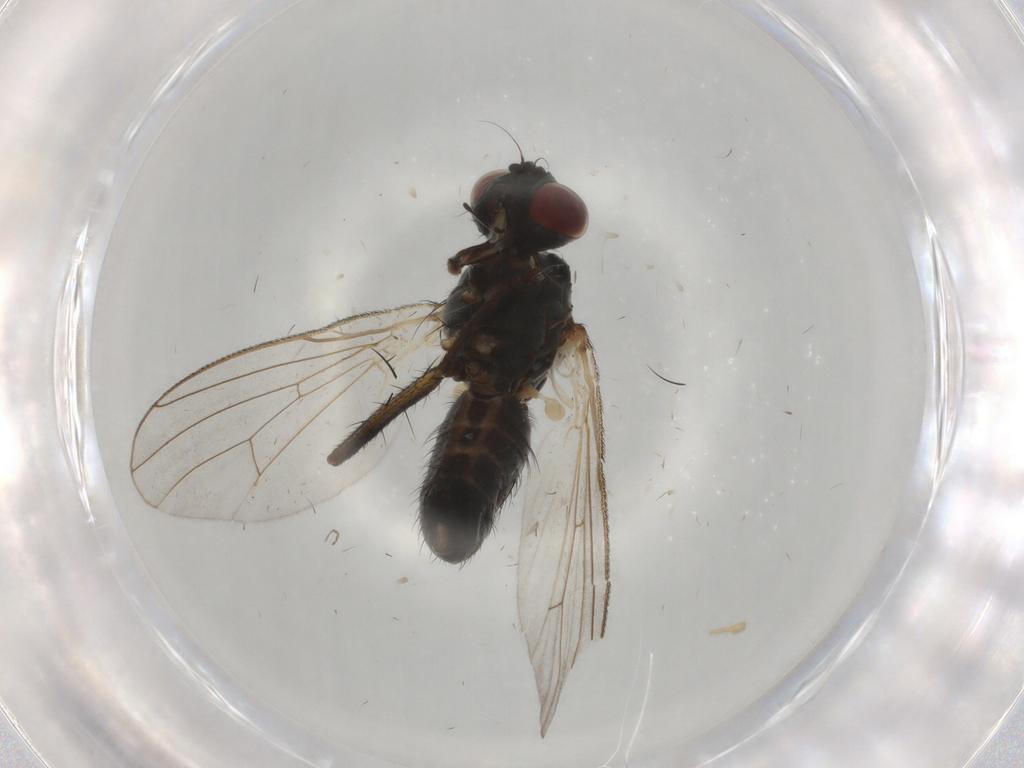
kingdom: Animalia
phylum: Arthropoda
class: Insecta
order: Diptera
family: Muscidae
